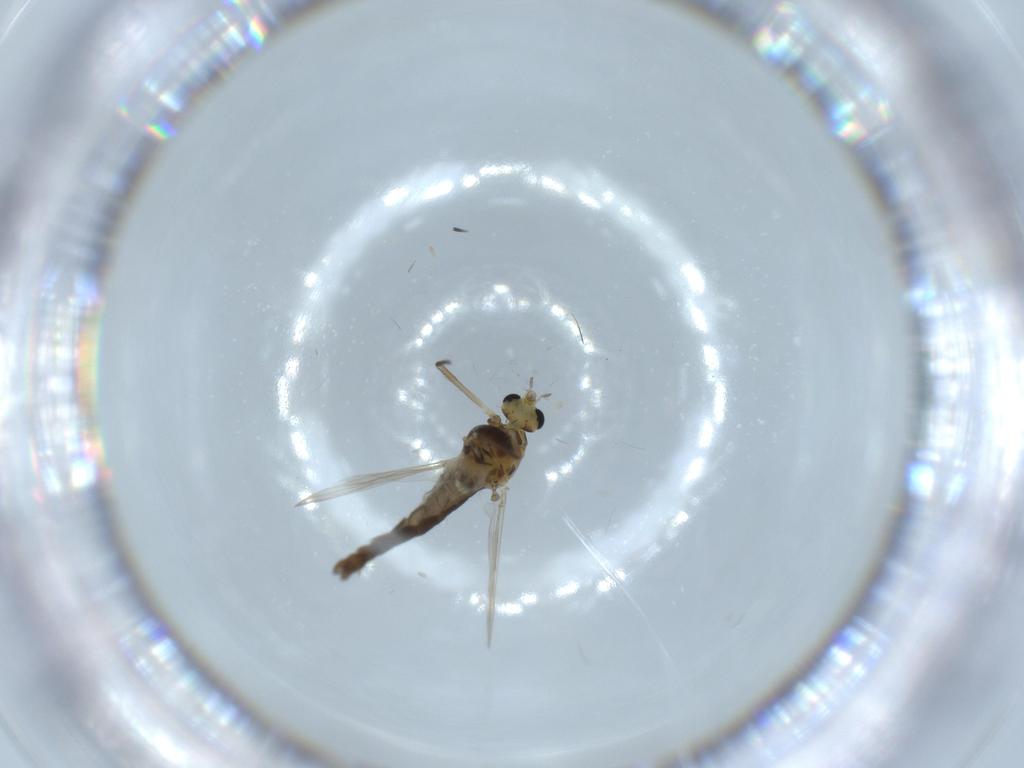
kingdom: Animalia
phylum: Arthropoda
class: Insecta
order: Diptera
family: Chironomidae
